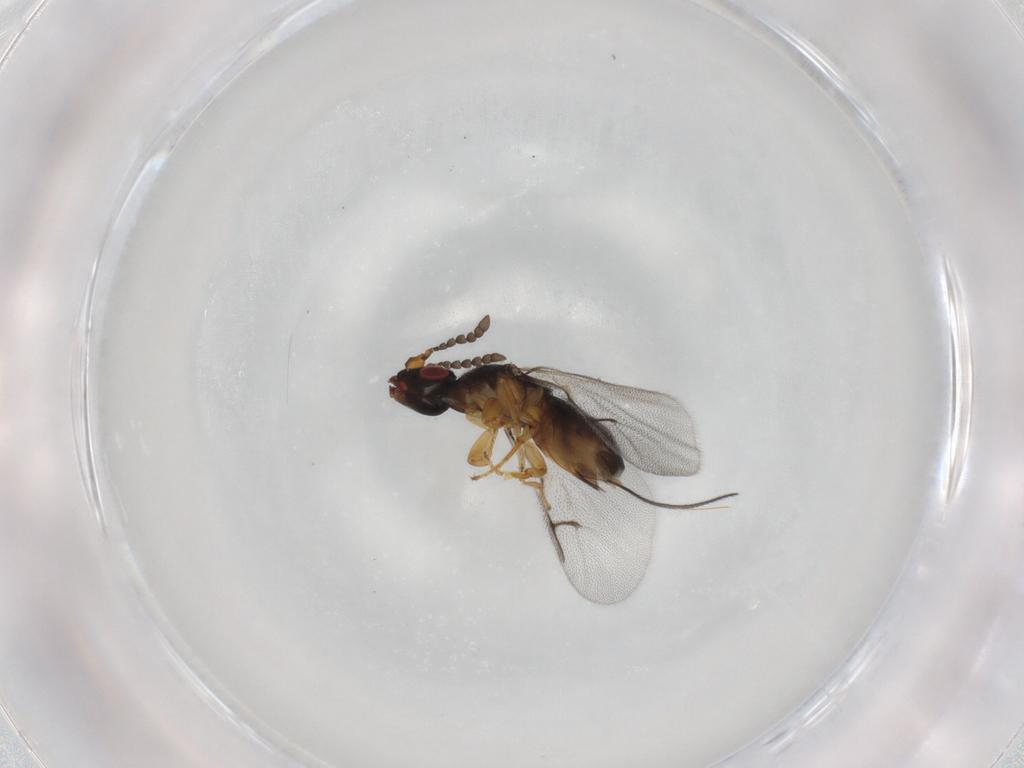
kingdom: Animalia
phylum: Arthropoda
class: Insecta
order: Hymenoptera
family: Agaonidae
